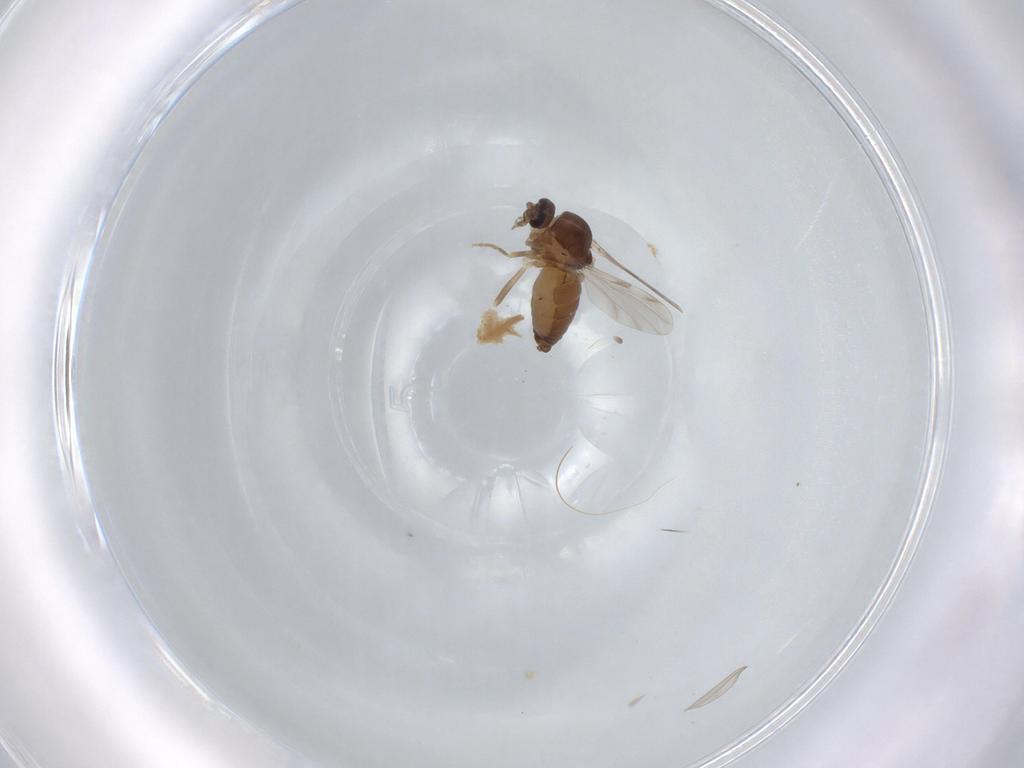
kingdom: Animalia
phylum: Arthropoda
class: Insecta
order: Diptera
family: Ceratopogonidae
